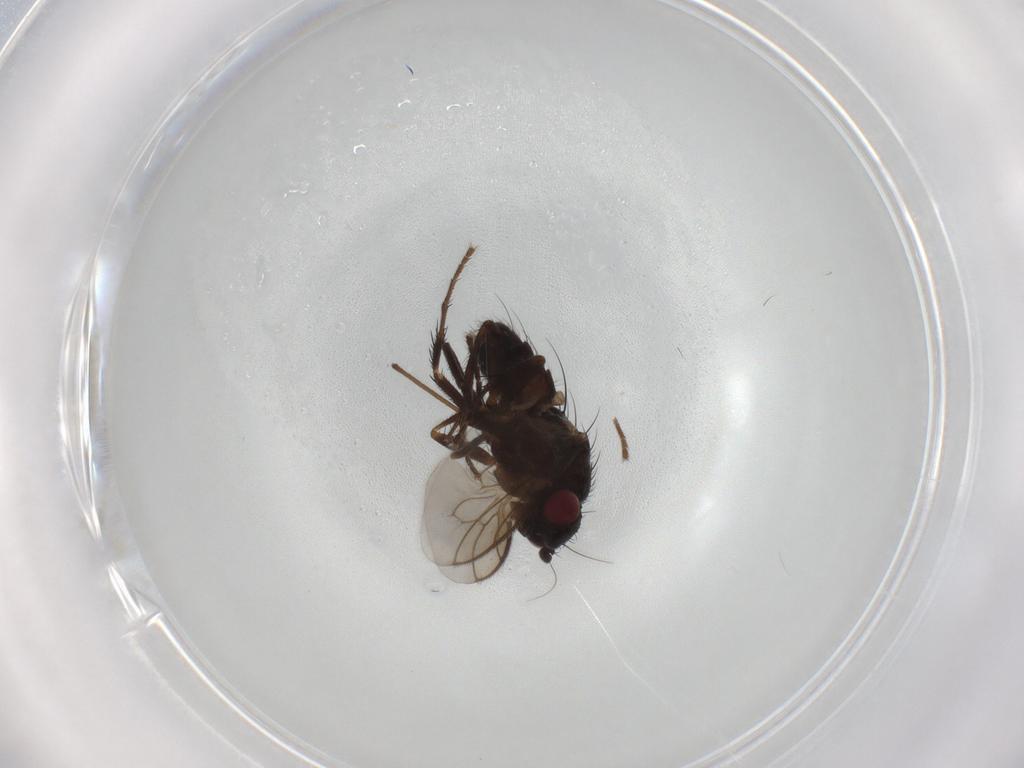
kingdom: Animalia
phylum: Arthropoda
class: Insecta
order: Diptera
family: Sphaeroceridae
